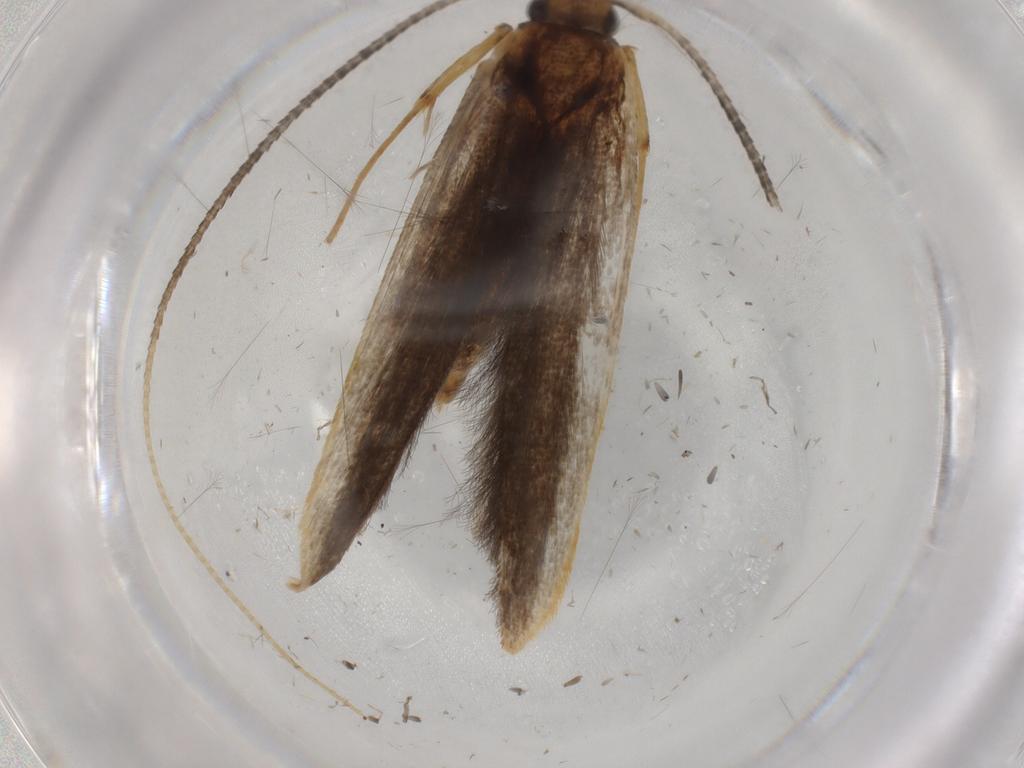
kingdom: Animalia
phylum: Arthropoda
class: Insecta
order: Lepidoptera
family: Pterolonchidae
